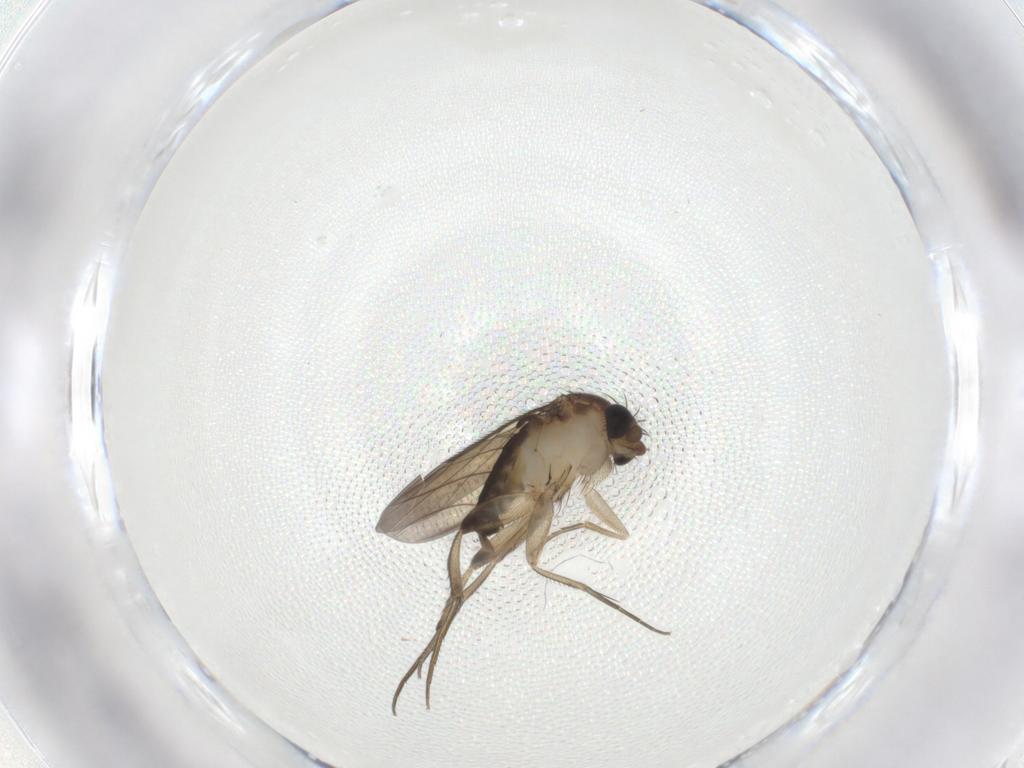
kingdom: Animalia
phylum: Arthropoda
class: Insecta
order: Diptera
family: Phoridae
